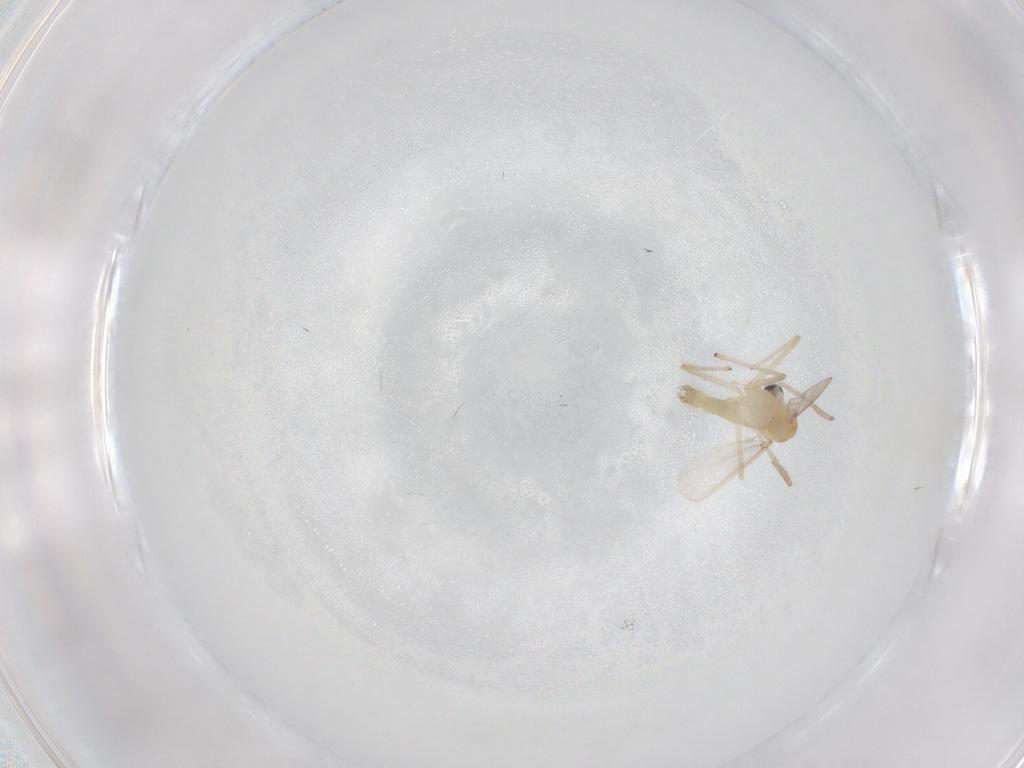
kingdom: Animalia
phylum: Arthropoda
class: Insecta
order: Diptera
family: Chironomidae
